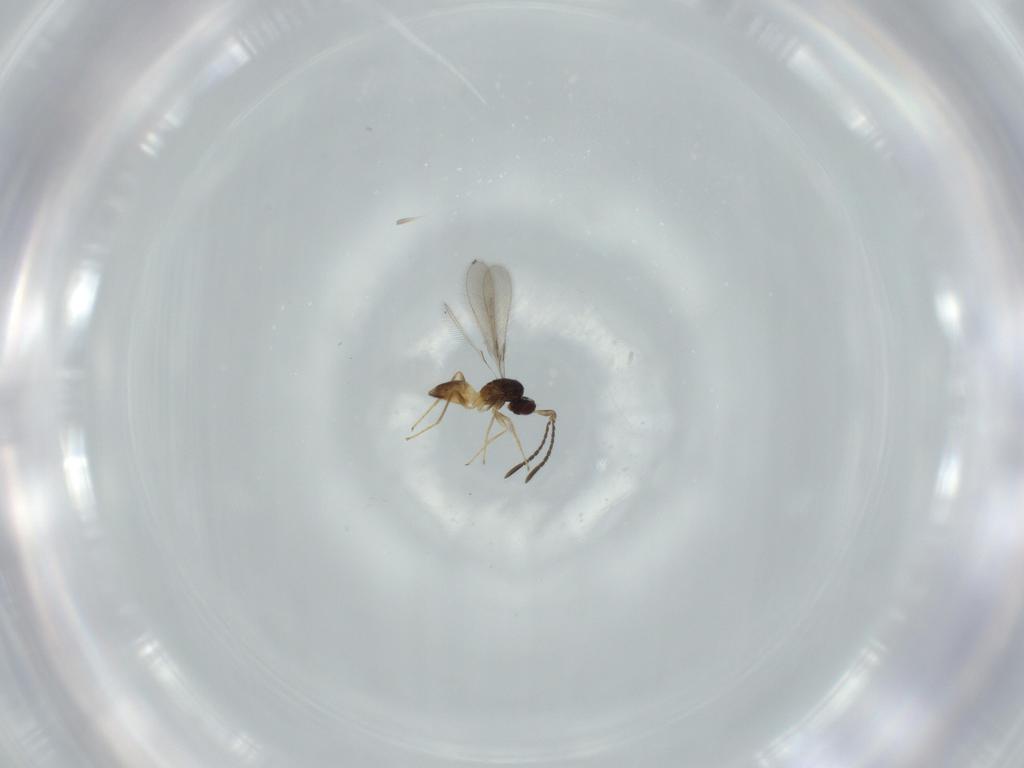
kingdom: Animalia
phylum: Arthropoda
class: Insecta
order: Hymenoptera
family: Mymaridae
